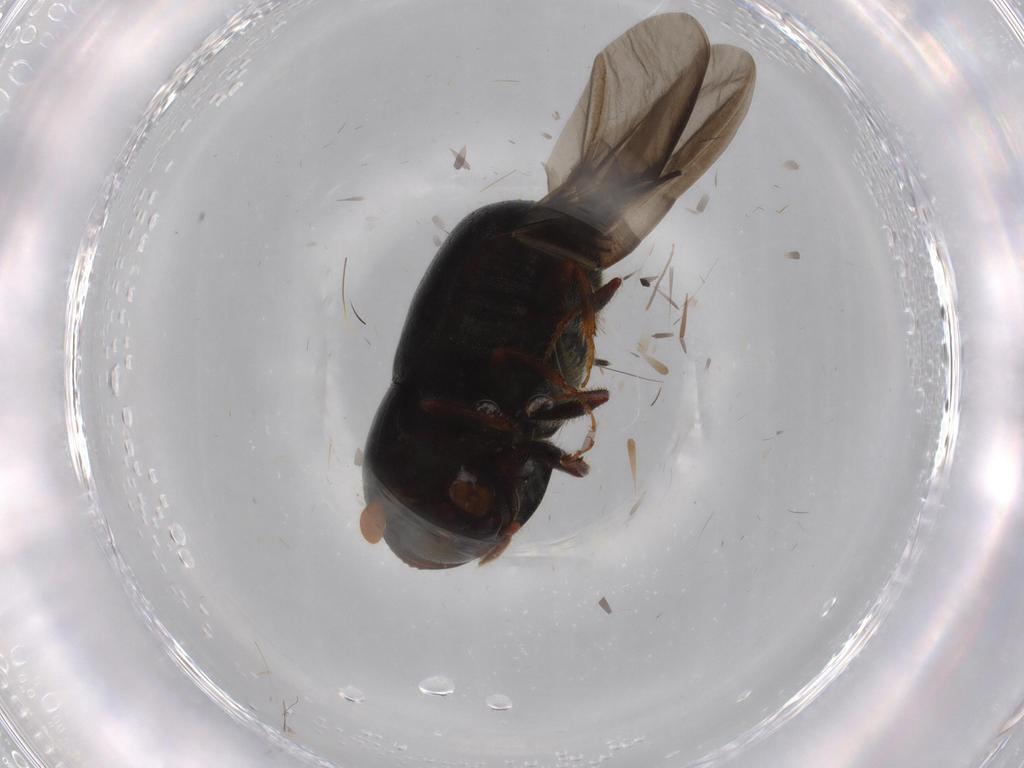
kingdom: Animalia
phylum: Arthropoda
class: Insecta
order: Coleoptera
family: Curculionidae
